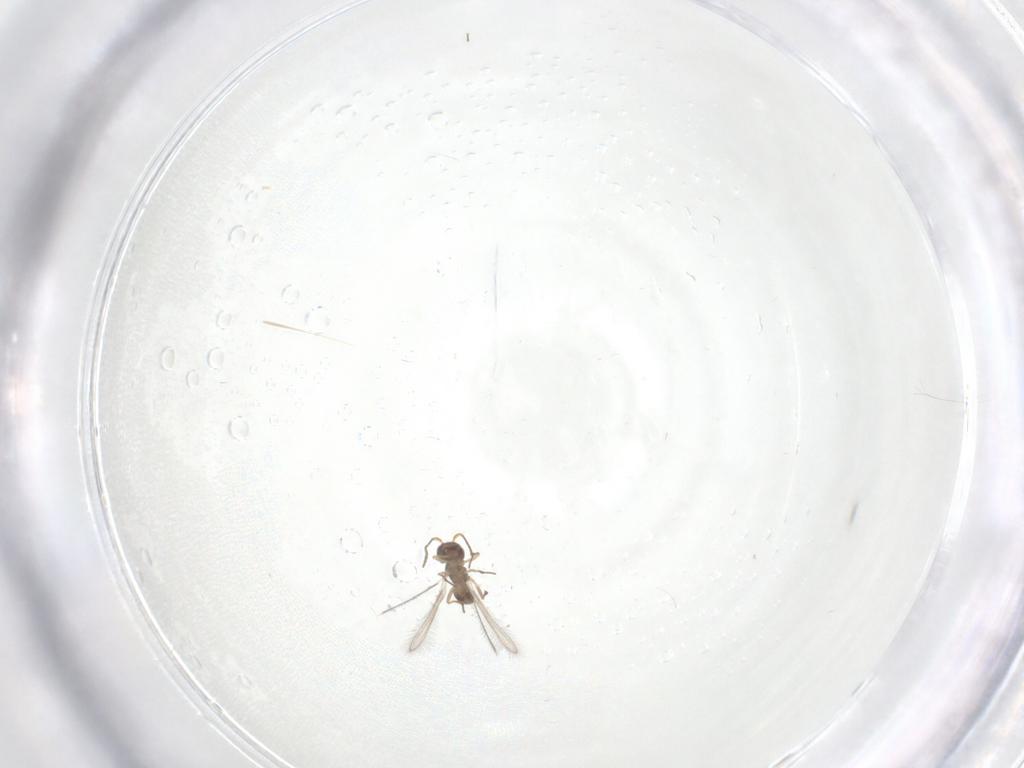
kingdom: Animalia
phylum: Arthropoda
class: Insecta
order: Hymenoptera
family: Mymaridae
